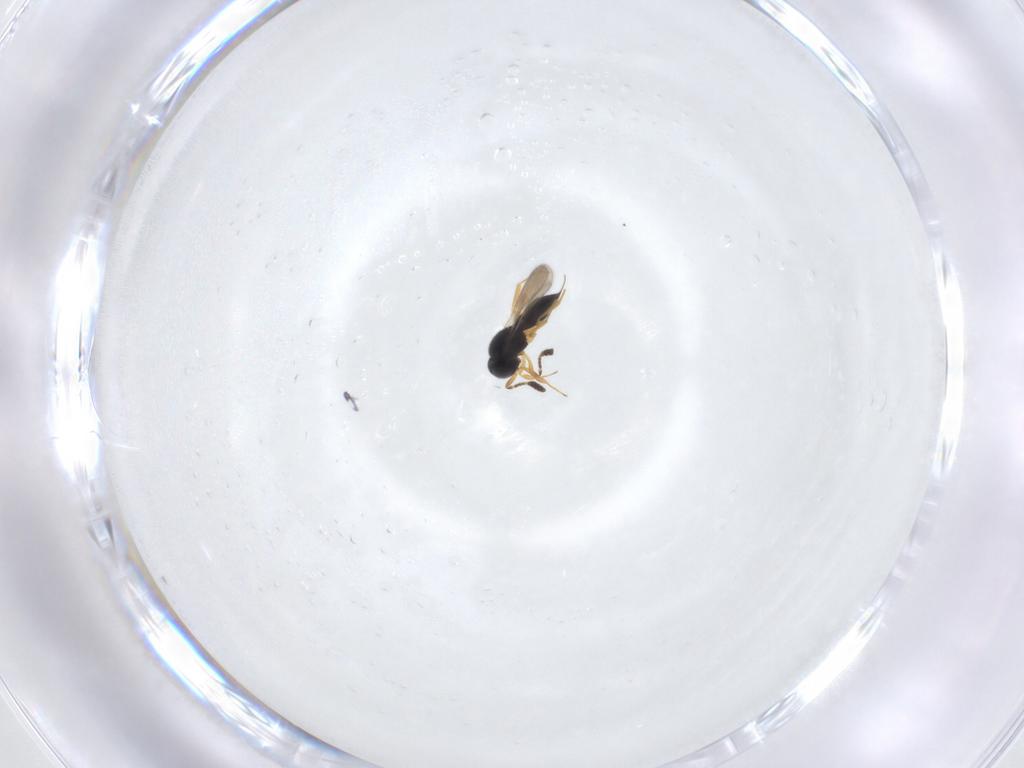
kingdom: Animalia
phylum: Arthropoda
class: Insecta
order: Hymenoptera
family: Scelionidae
